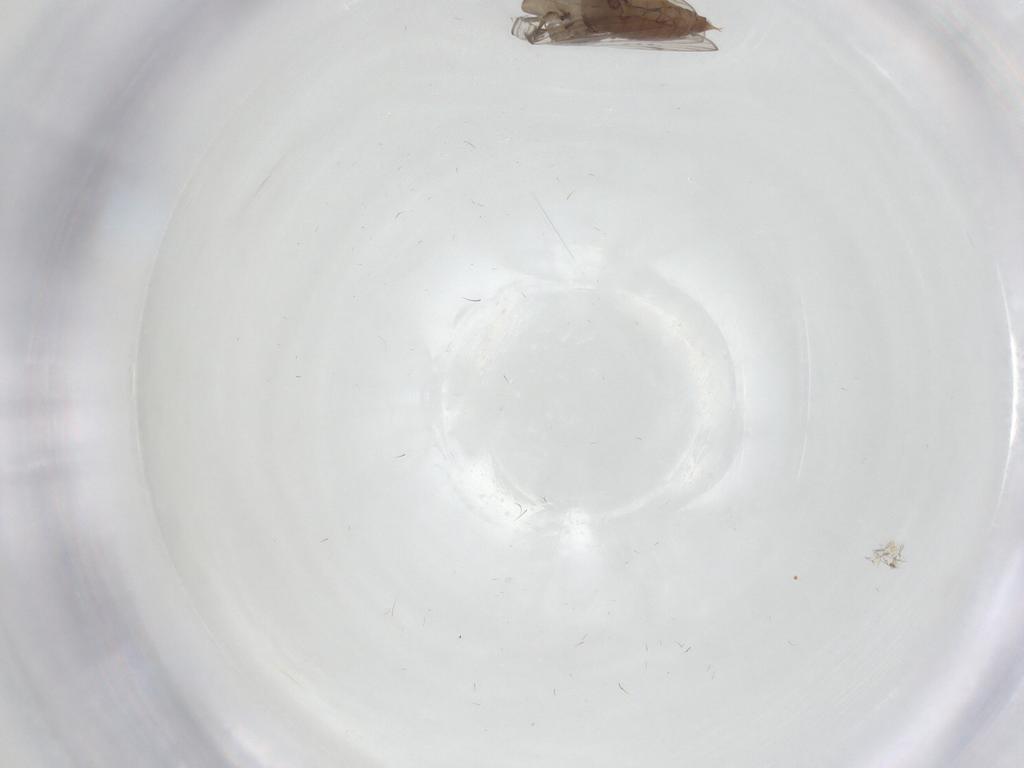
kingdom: Animalia
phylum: Arthropoda
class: Insecta
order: Diptera
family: Psychodidae
